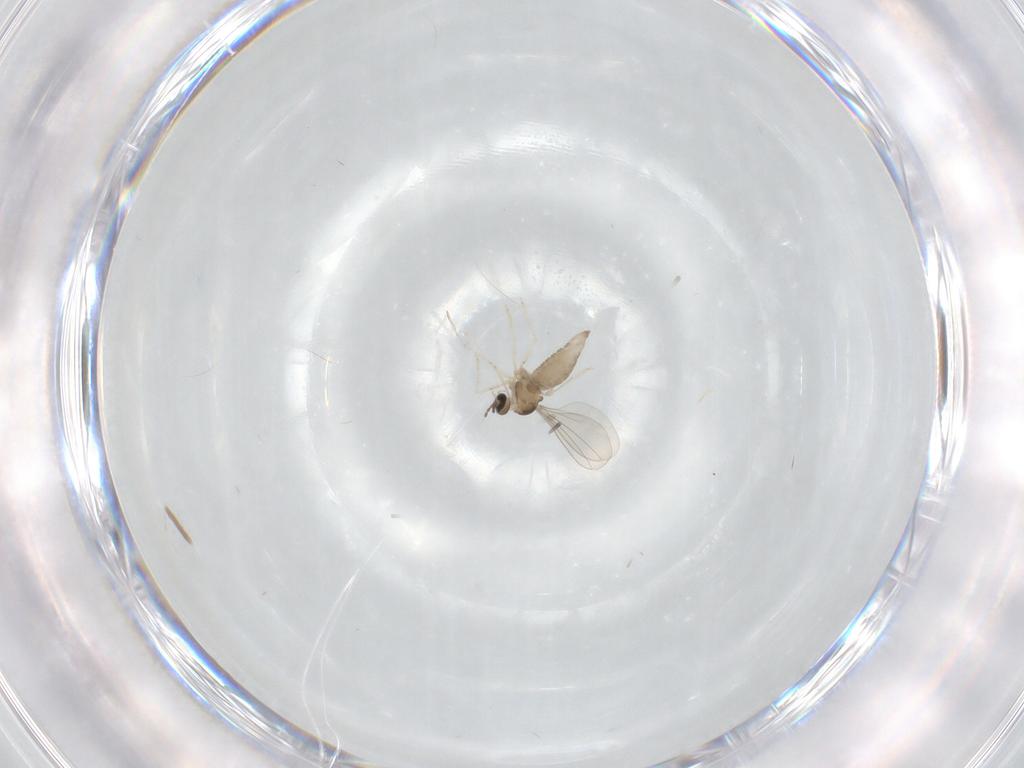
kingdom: Animalia
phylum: Arthropoda
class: Insecta
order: Diptera
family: Cecidomyiidae
